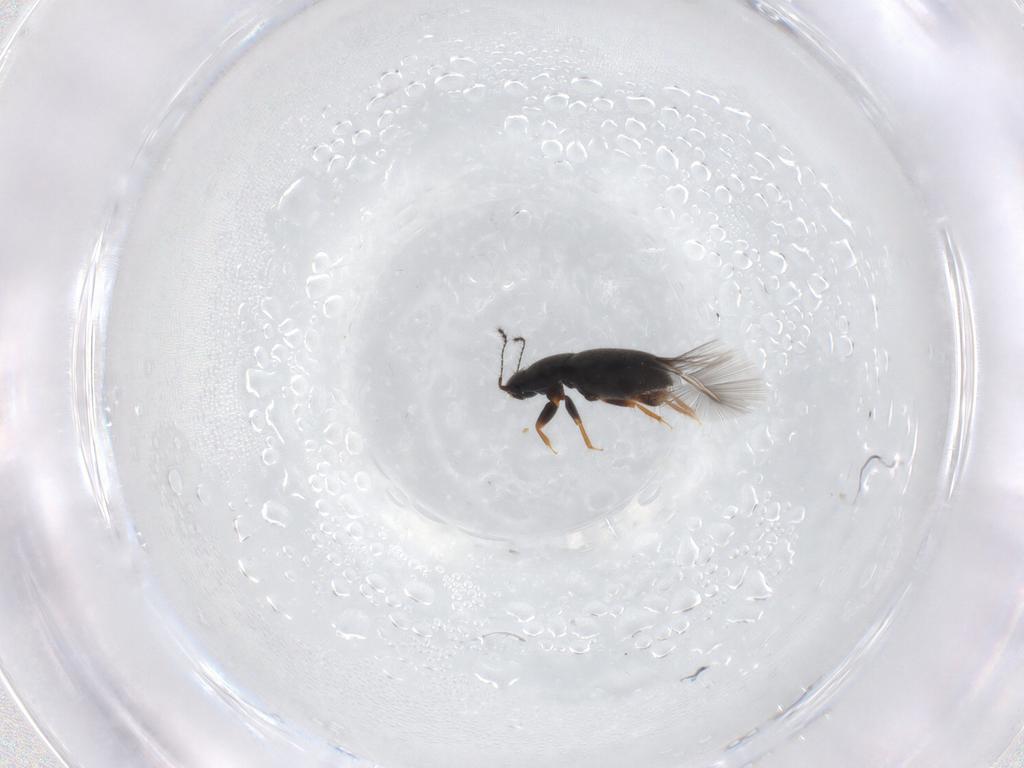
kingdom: Animalia
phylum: Arthropoda
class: Insecta
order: Coleoptera
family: Ptiliidae
